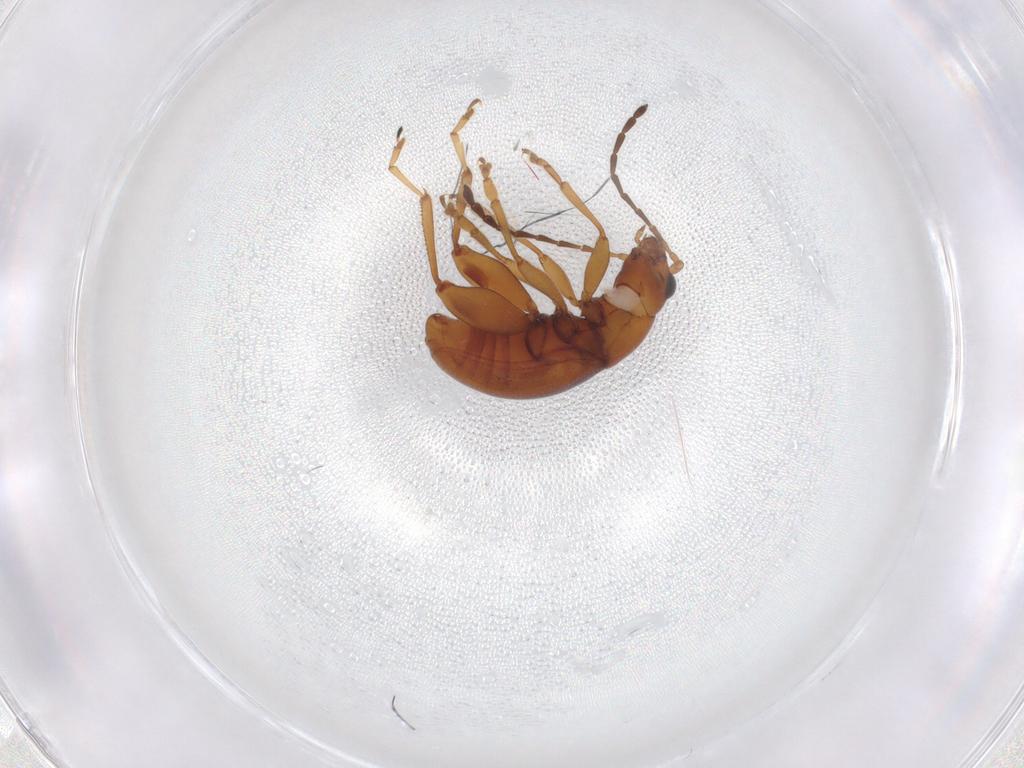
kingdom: Animalia
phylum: Arthropoda
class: Insecta
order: Coleoptera
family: Chrysomelidae
